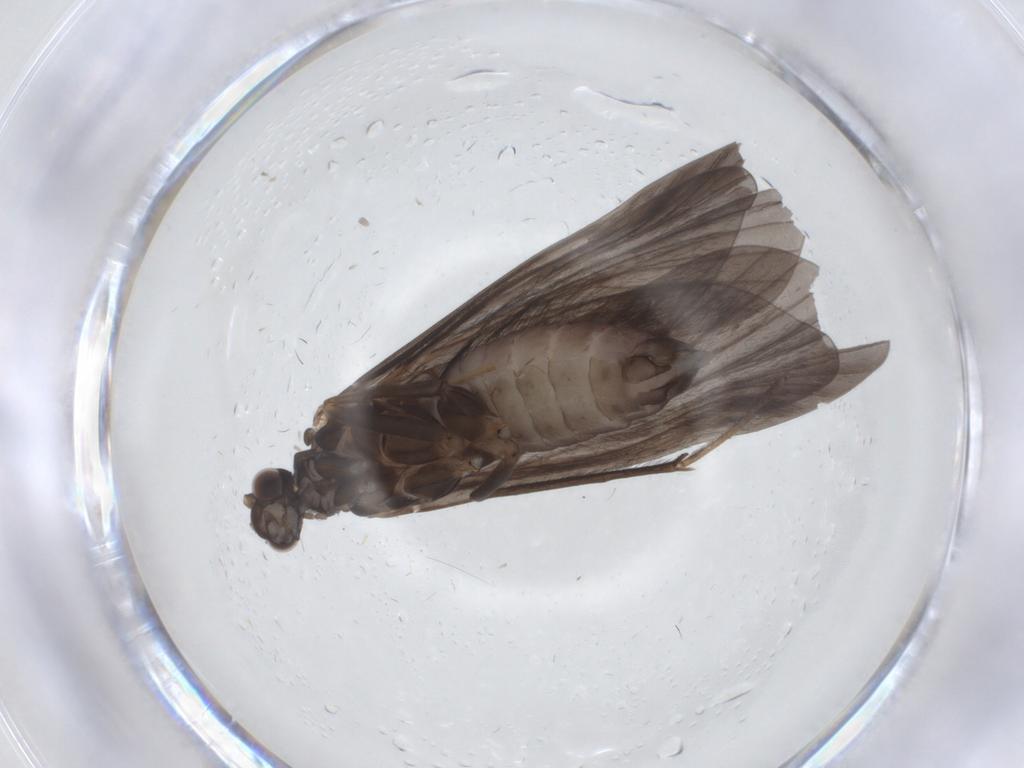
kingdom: Animalia
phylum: Arthropoda
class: Insecta
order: Trichoptera
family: Hydropsychidae
